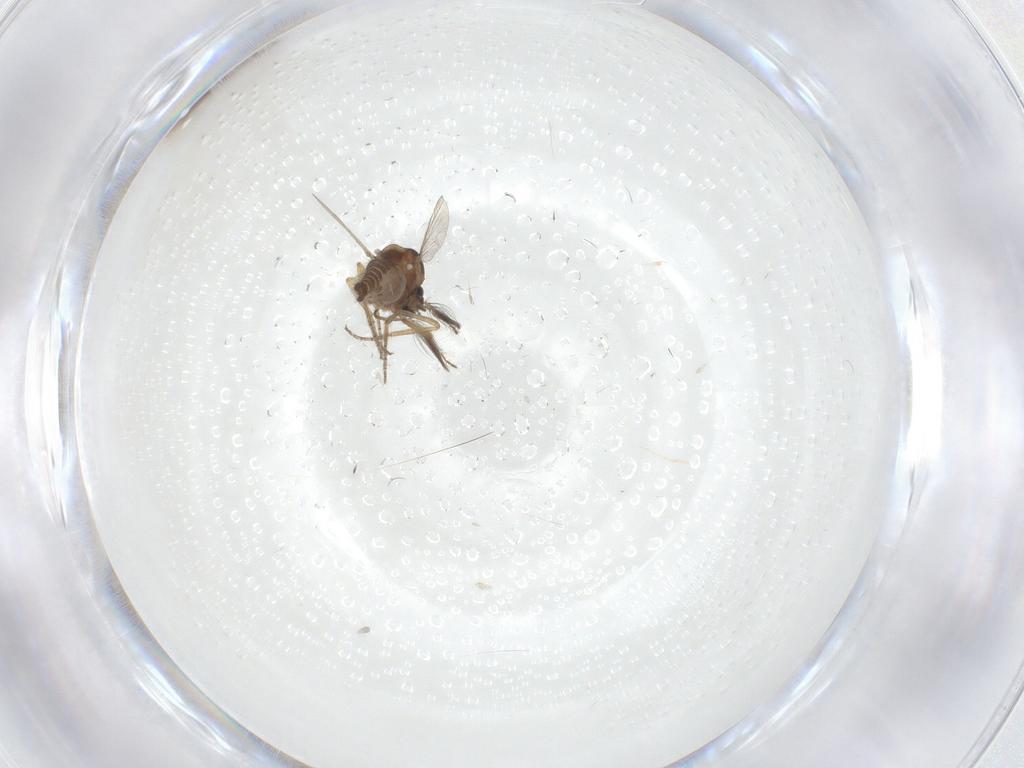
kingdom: Animalia
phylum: Arthropoda
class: Insecta
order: Diptera
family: Ceratopogonidae
